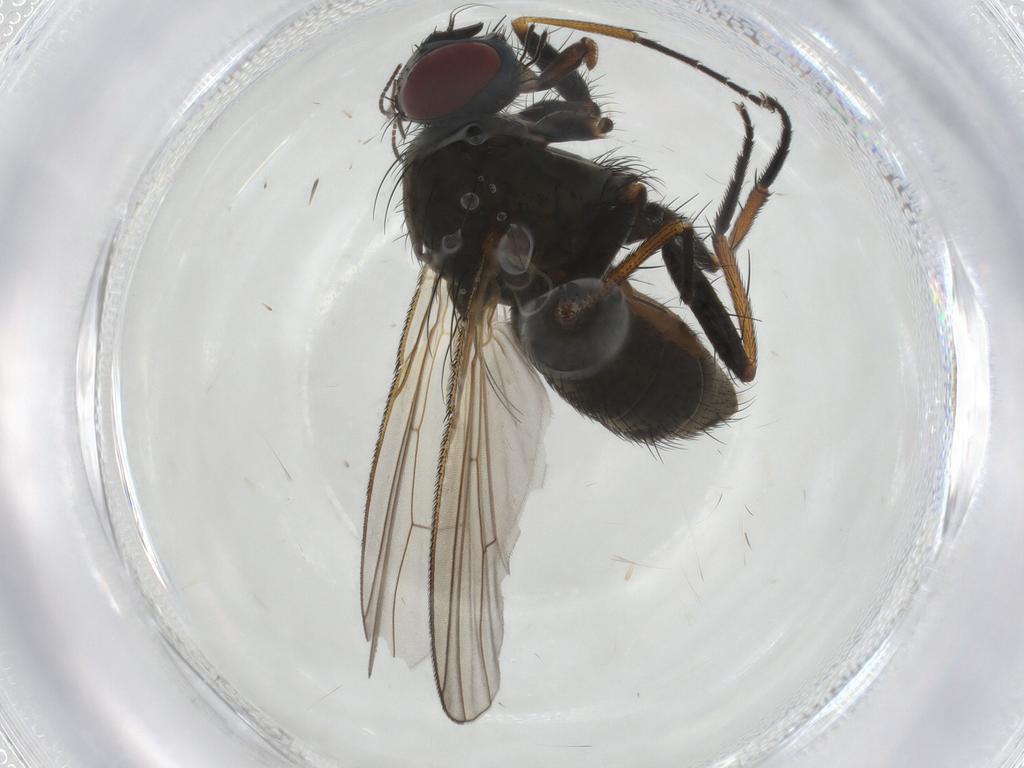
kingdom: Animalia
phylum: Arthropoda
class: Insecta
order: Diptera
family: Muscidae
